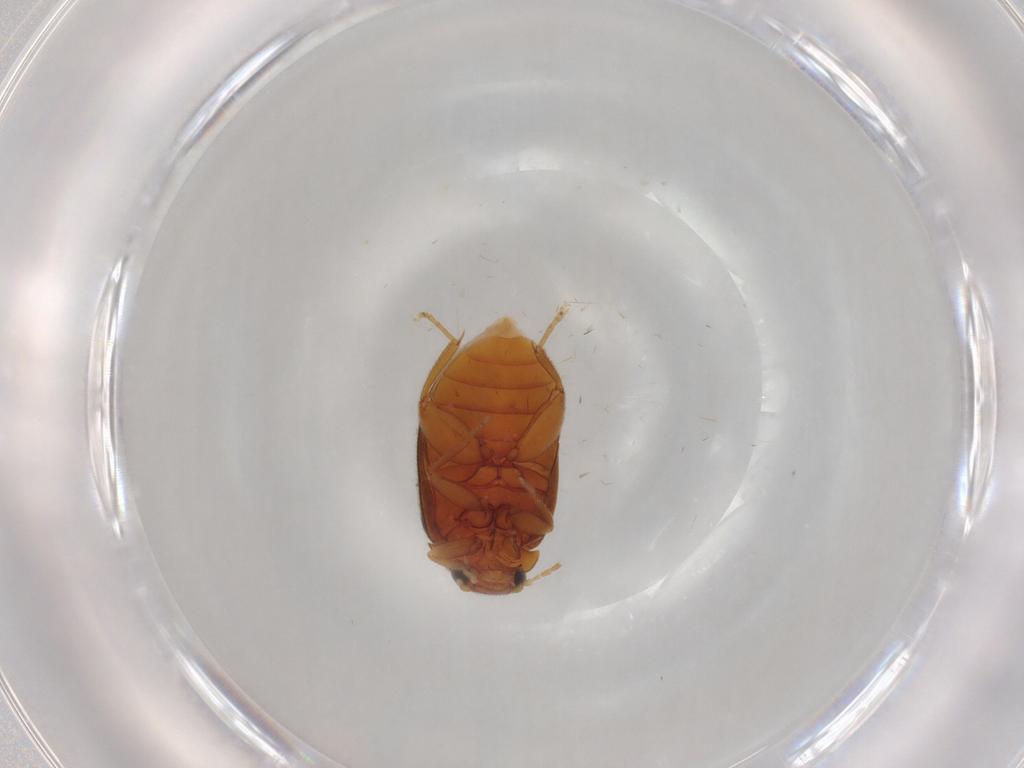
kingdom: Animalia
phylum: Arthropoda
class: Insecta
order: Coleoptera
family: Scirtidae
